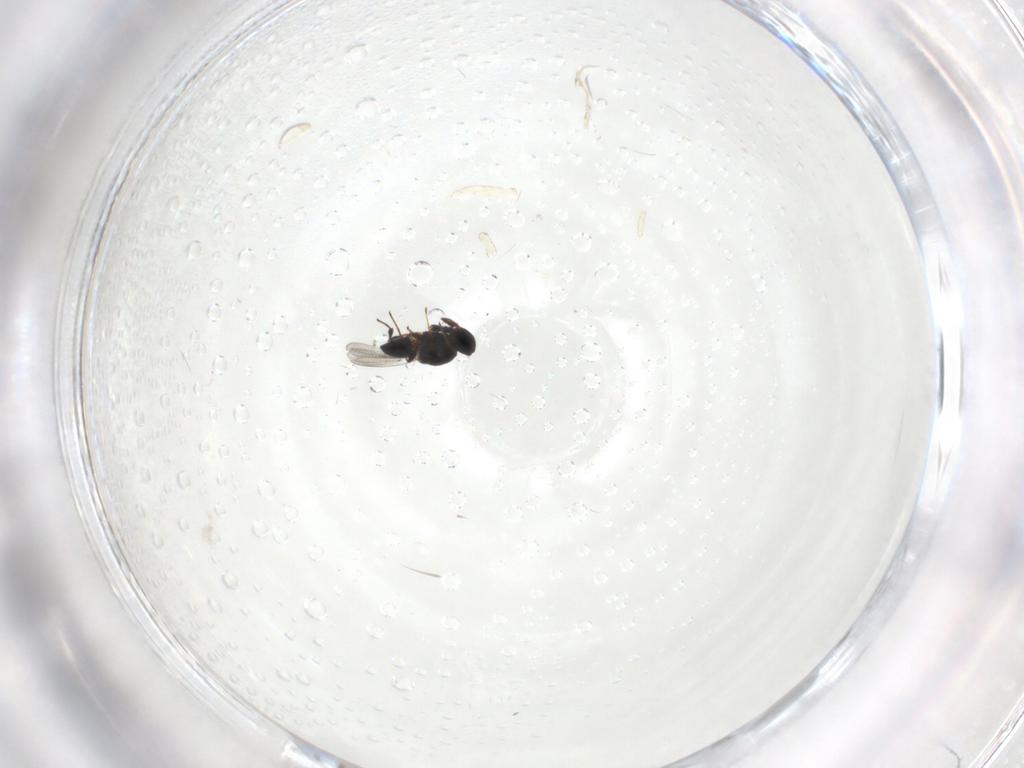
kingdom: Animalia
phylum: Arthropoda
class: Insecta
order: Hymenoptera
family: Platygastridae
